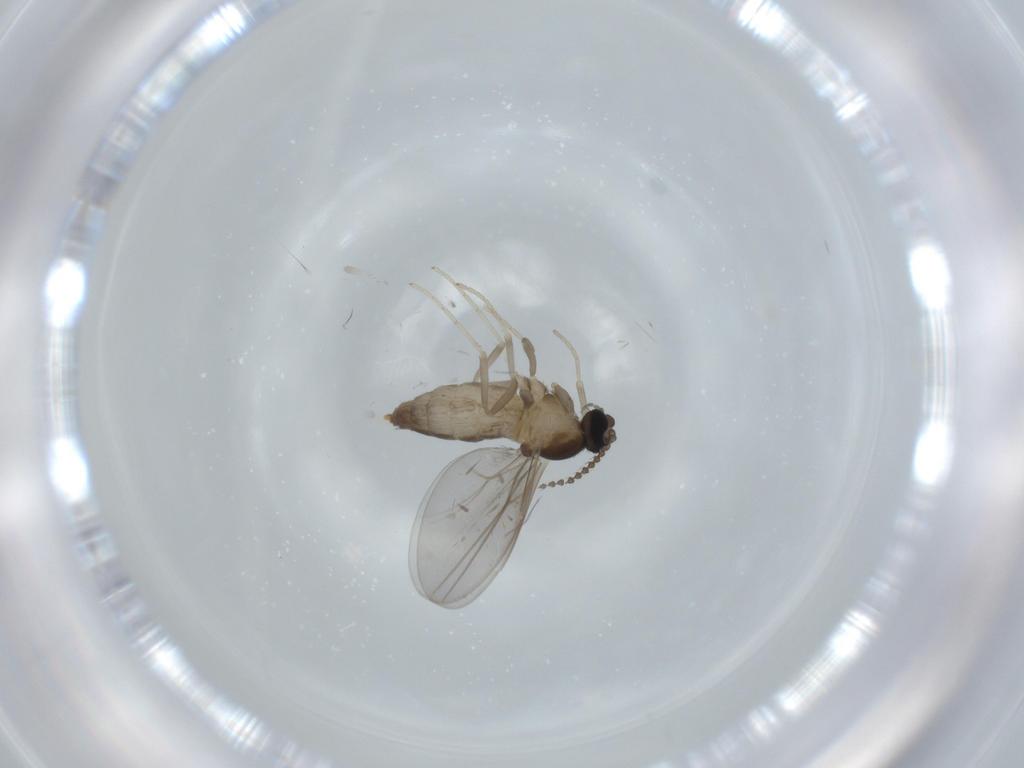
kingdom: Animalia
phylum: Arthropoda
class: Insecta
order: Diptera
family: Cecidomyiidae
